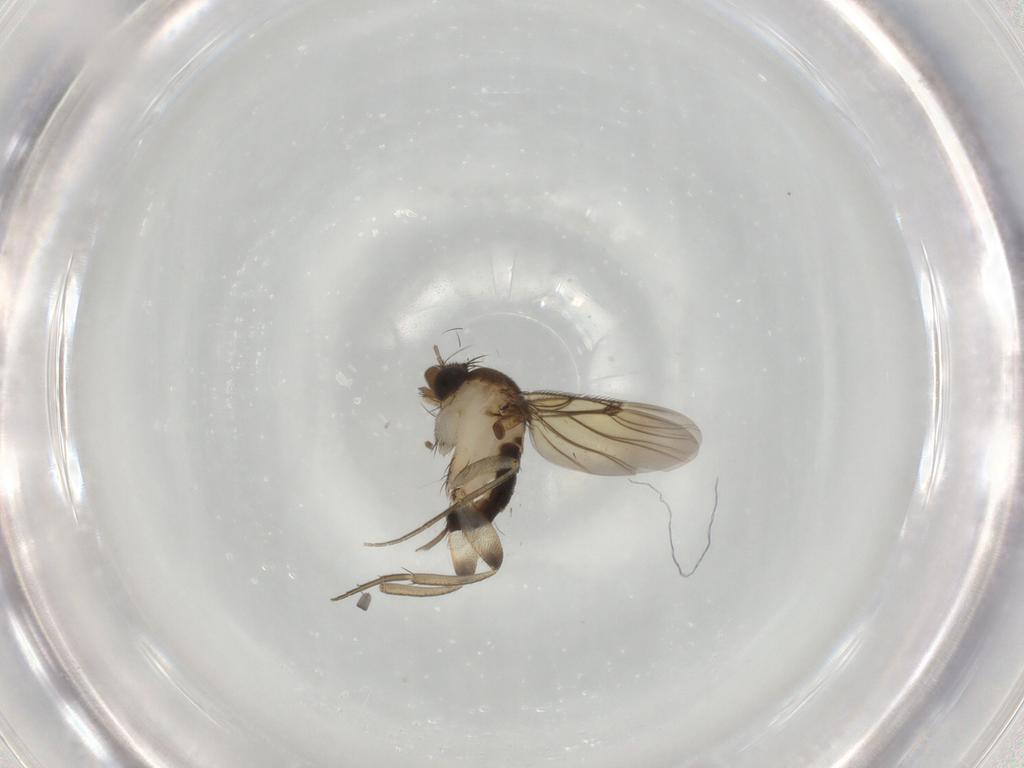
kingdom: Animalia
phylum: Arthropoda
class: Insecta
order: Diptera
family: Phoridae
